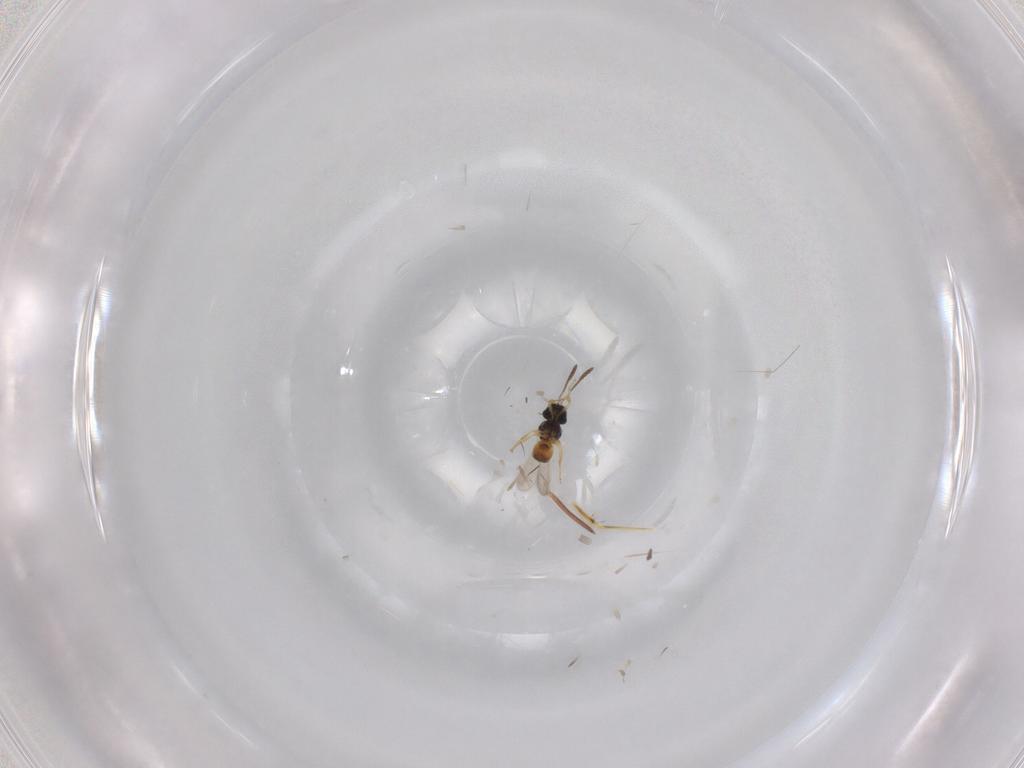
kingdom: Animalia
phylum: Arthropoda
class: Insecta
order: Hymenoptera
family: Scelionidae
